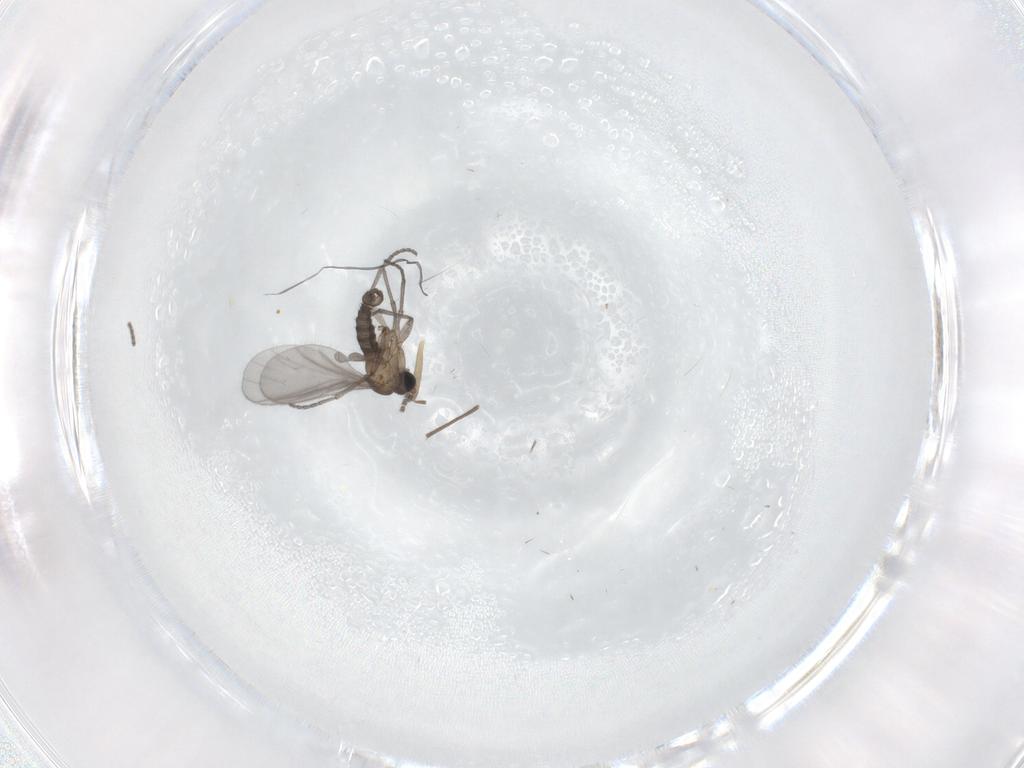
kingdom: Animalia
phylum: Arthropoda
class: Insecta
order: Diptera
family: Sciaridae
